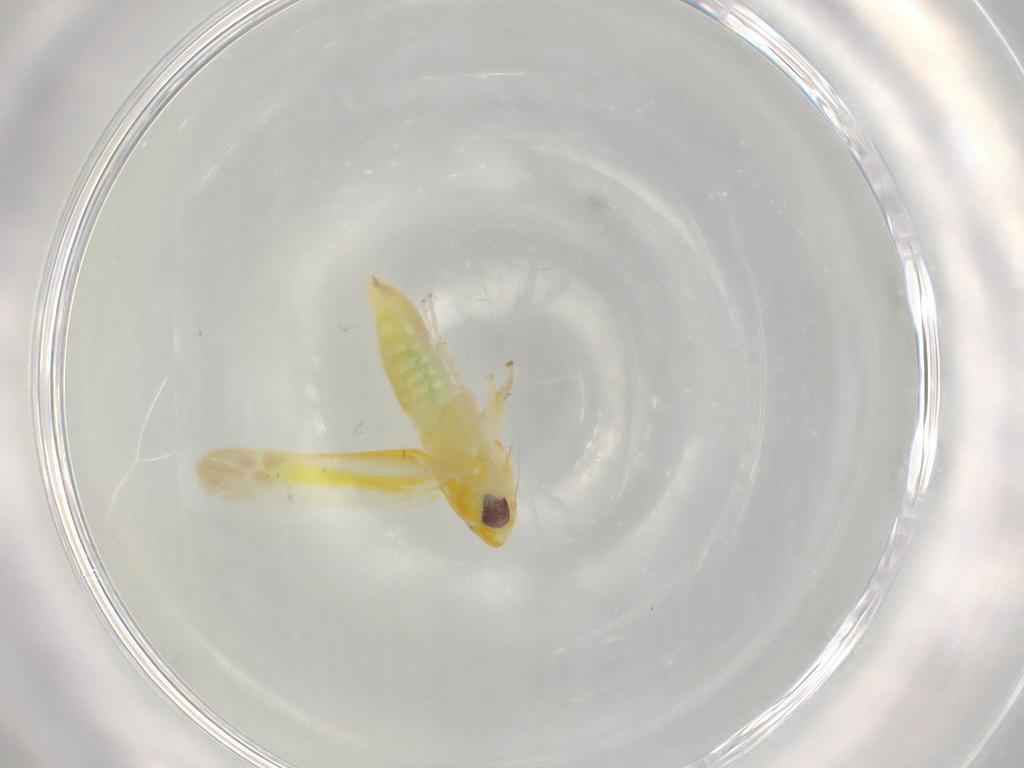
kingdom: Animalia
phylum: Arthropoda
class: Insecta
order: Hemiptera
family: Cicadellidae
